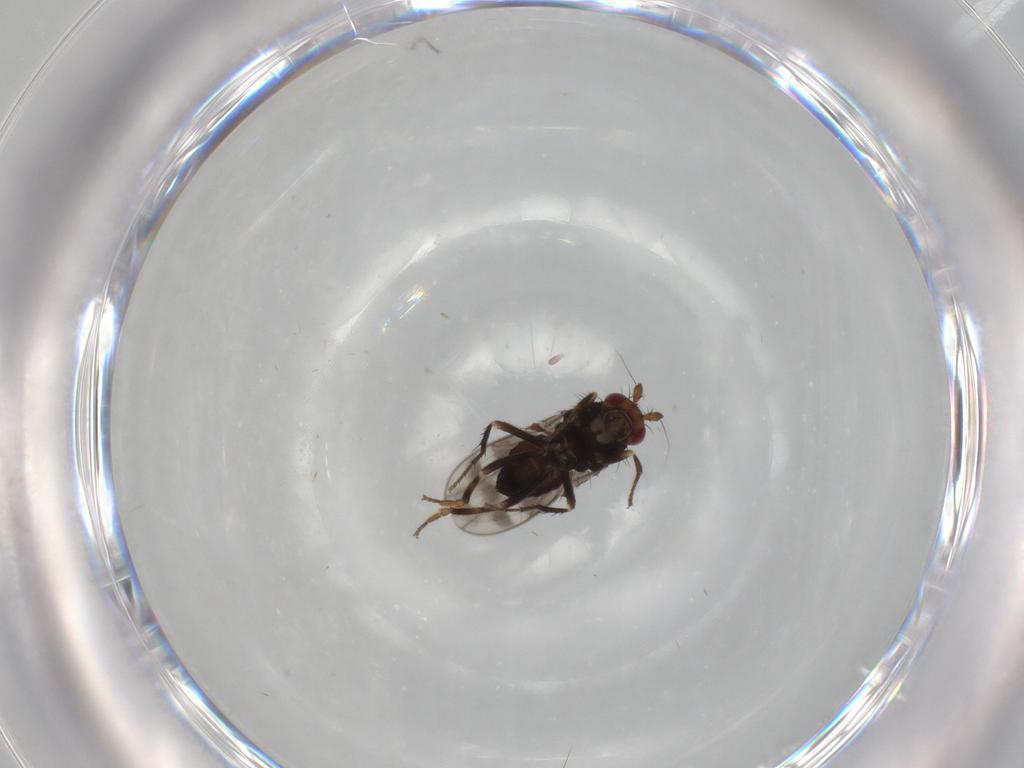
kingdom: Animalia
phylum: Arthropoda
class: Insecta
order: Diptera
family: Sphaeroceridae
